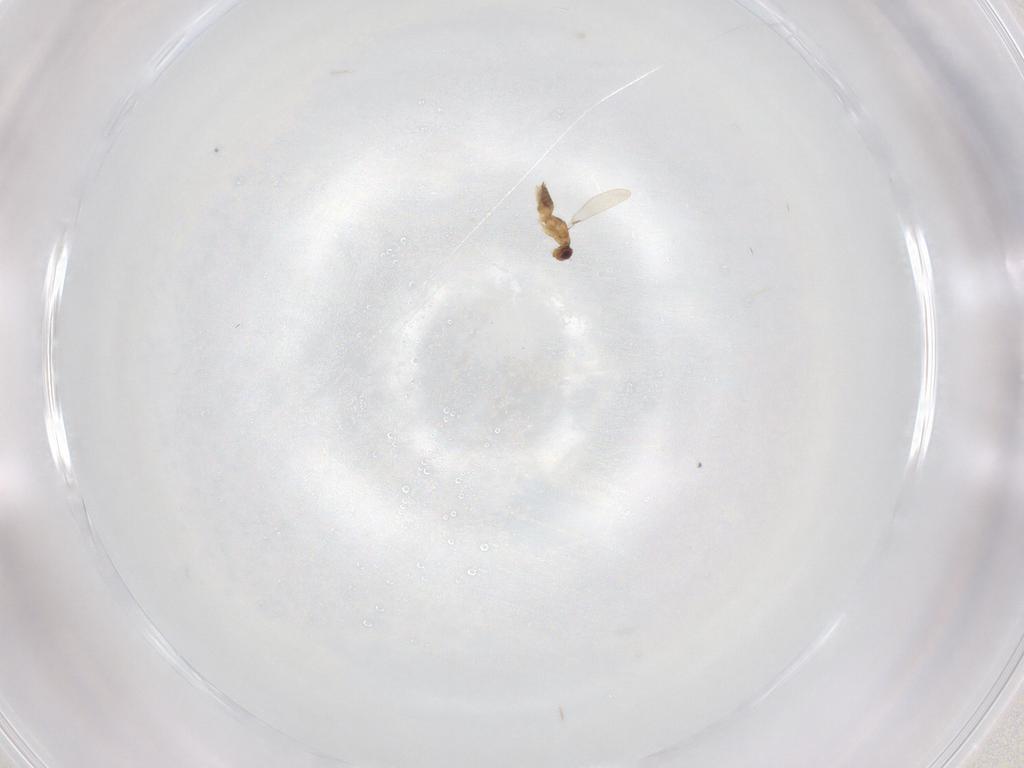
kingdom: Animalia
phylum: Arthropoda
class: Insecta
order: Hymenoptera
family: Mymaridae
